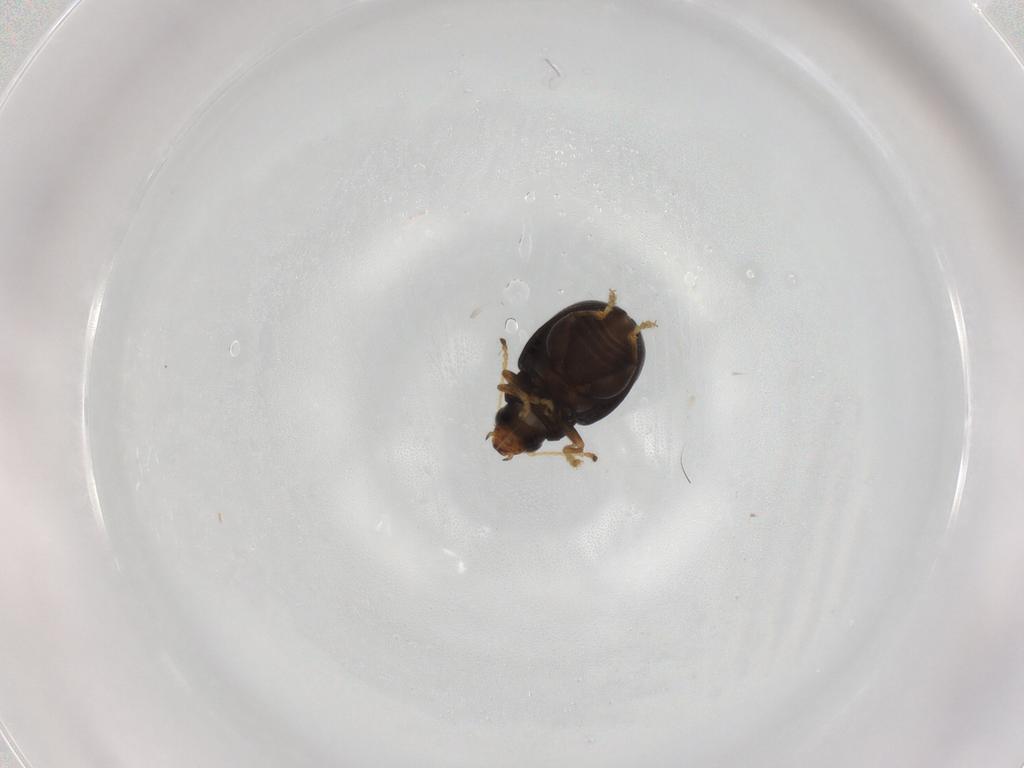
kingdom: Animalia
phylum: Arthropoda
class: Insecta
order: Coleoptera
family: Chrysomelidae
